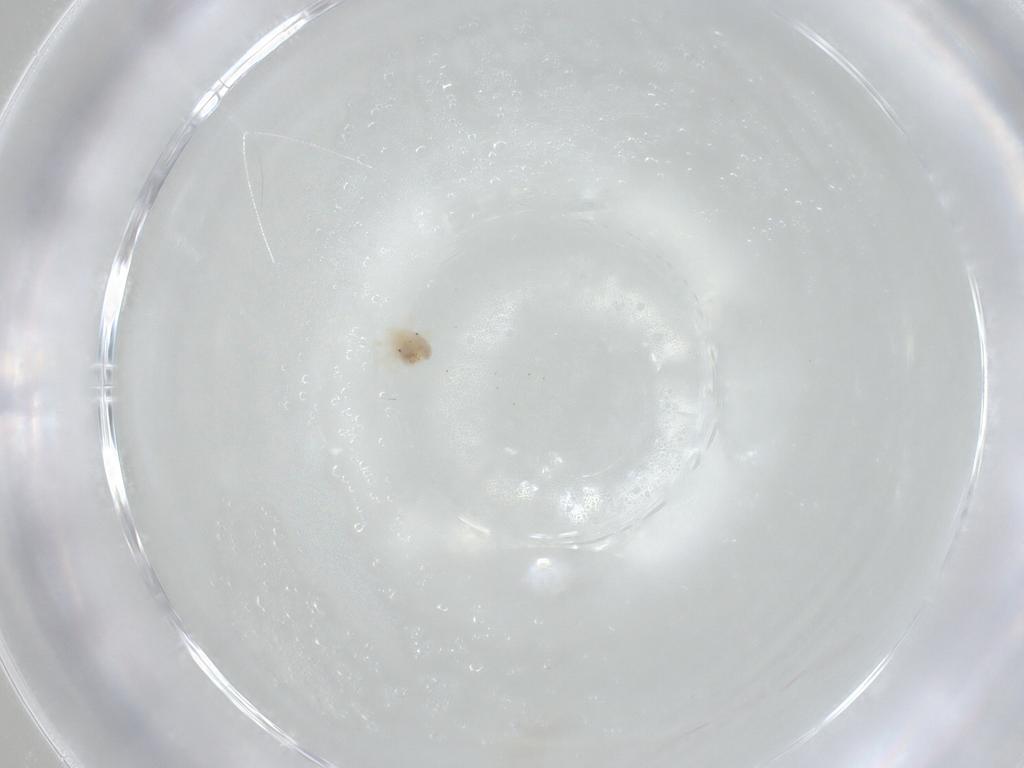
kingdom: Animalia
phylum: Arthropoda
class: Arachnida
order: Trombidiformes
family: Anystidae
